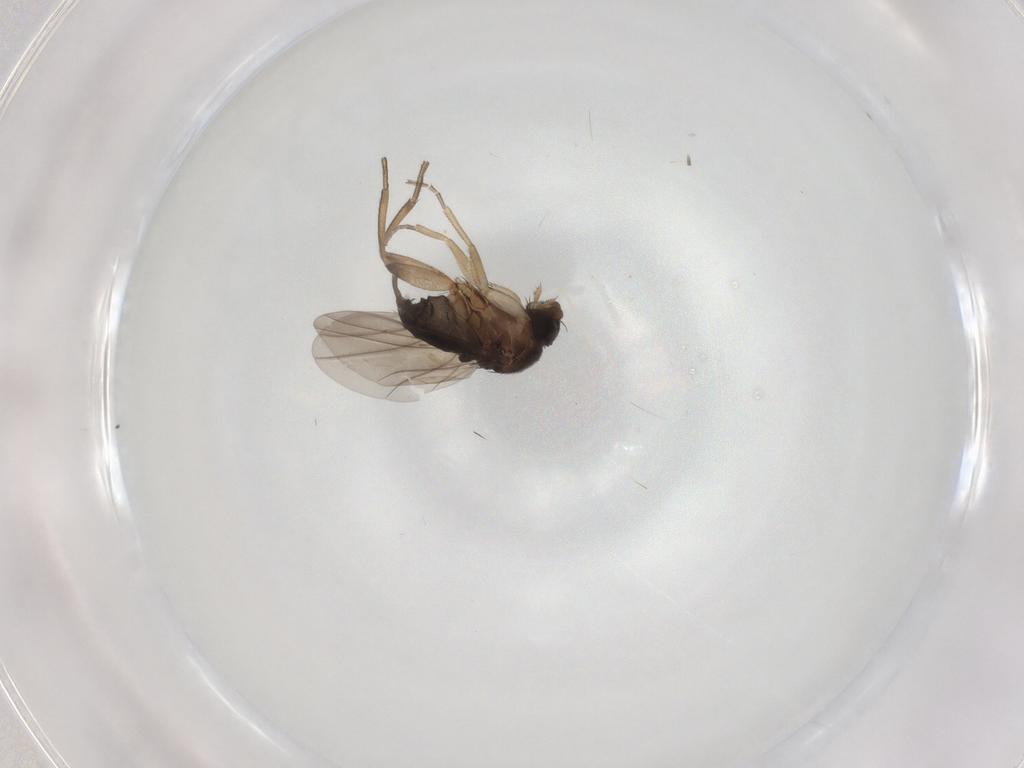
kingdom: Animalia
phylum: Arthropoda
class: Insecta
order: Diptera
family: Phoridae
